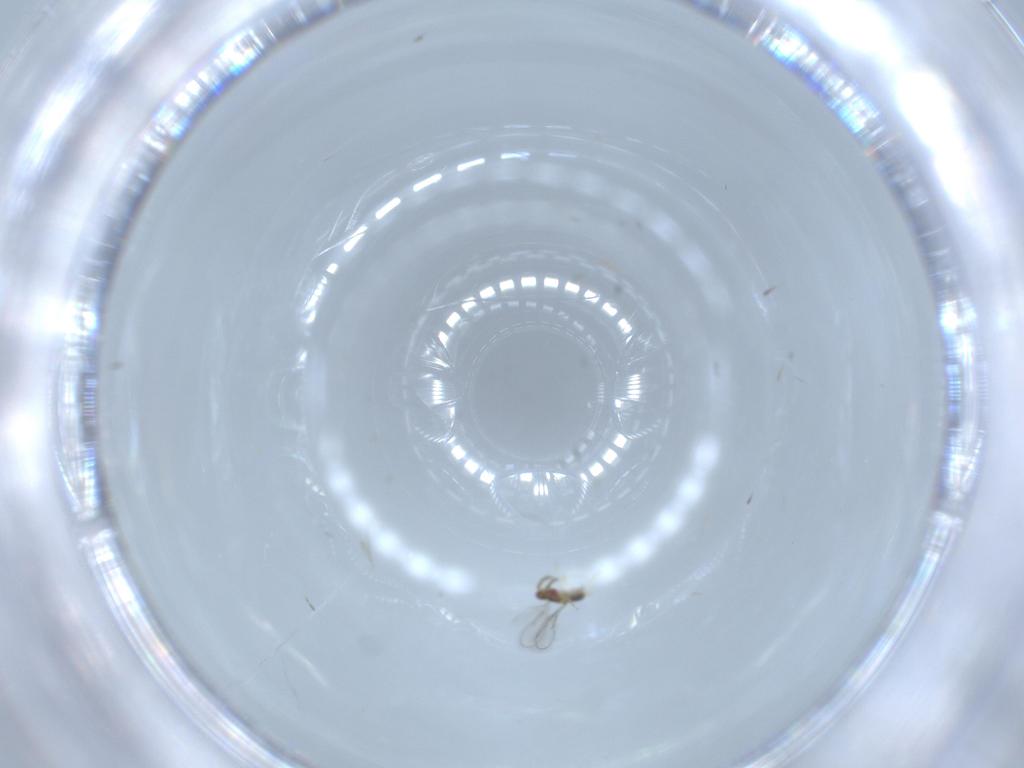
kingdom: Animalia
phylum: Arthropoda
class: Insecta
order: Hymenoptera
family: Aphelinidae
